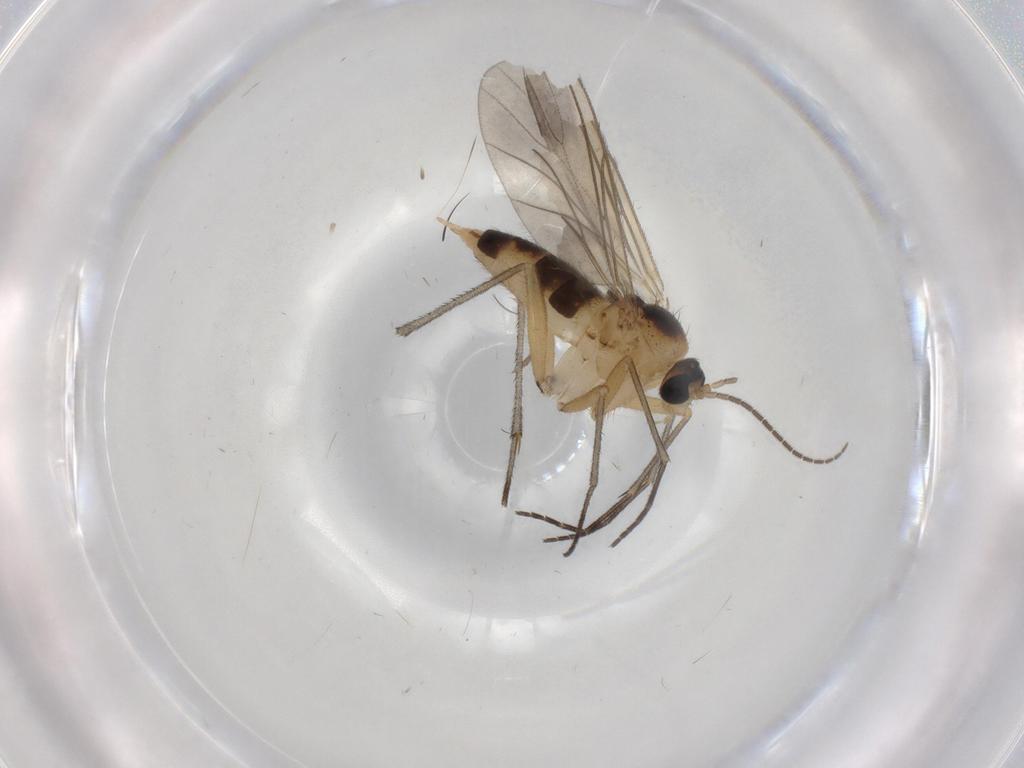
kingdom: Animalia
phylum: Arthropoda
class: Insecta
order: Diptera
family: Sciaridae
